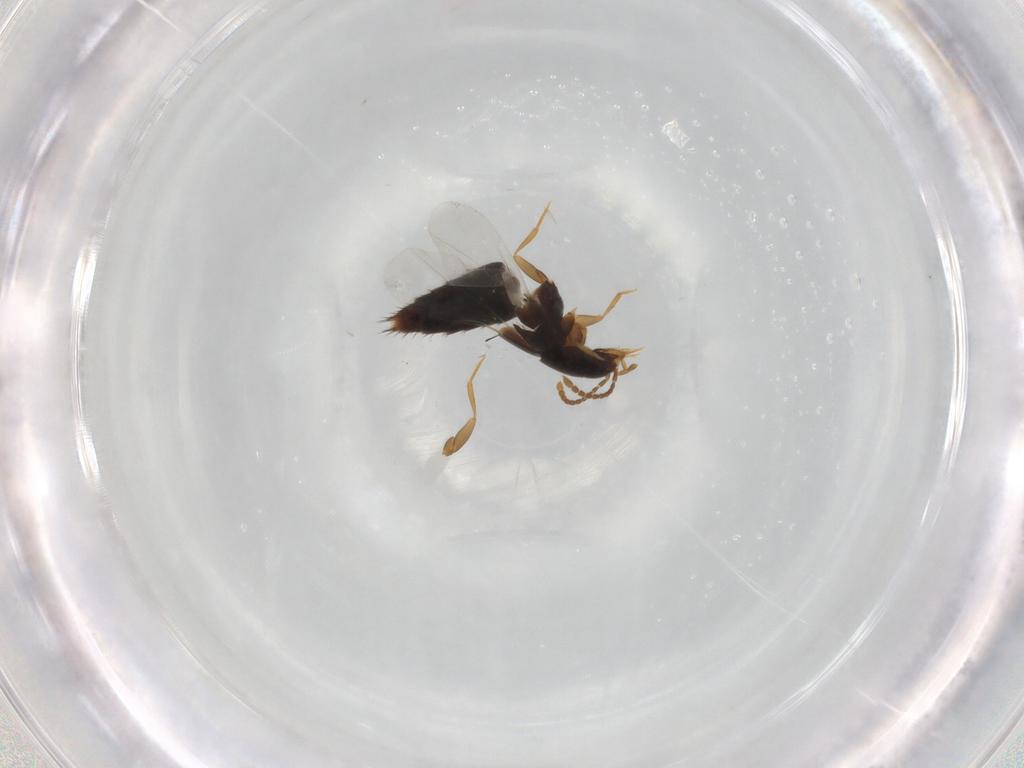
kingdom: Animalia
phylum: Arthropoda
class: Insecta
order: Coleoptera
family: Staphylinidae
